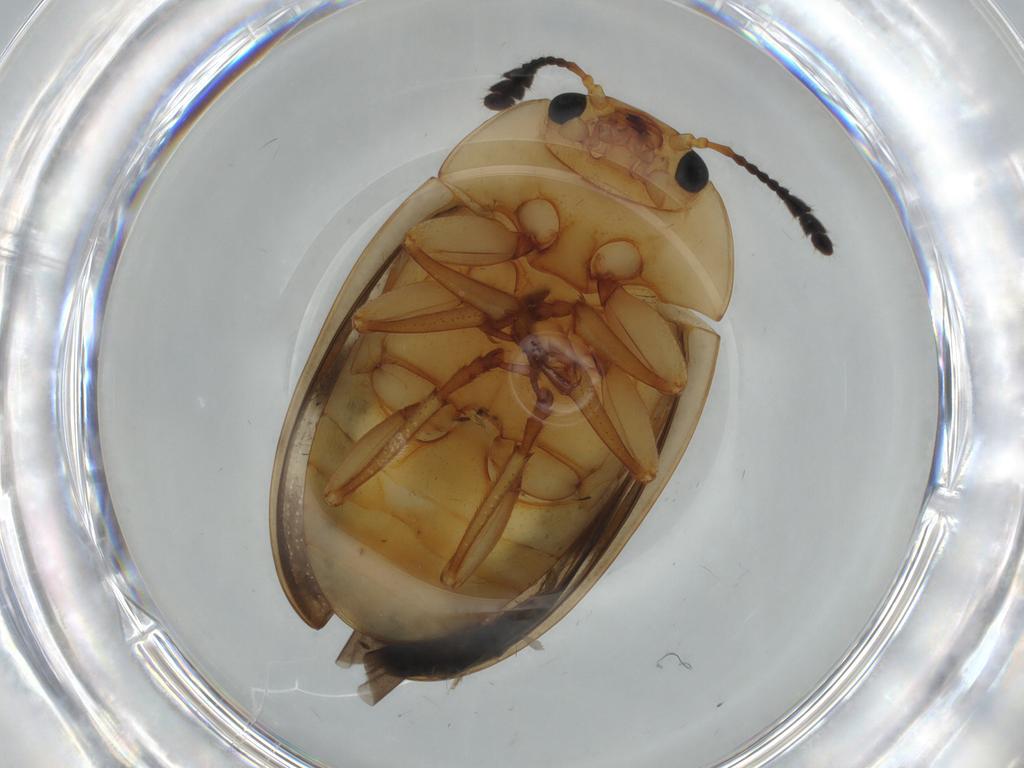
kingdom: Animalia
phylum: Arthropoda
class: Insecta
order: Coleoptera
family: Erotylidae
